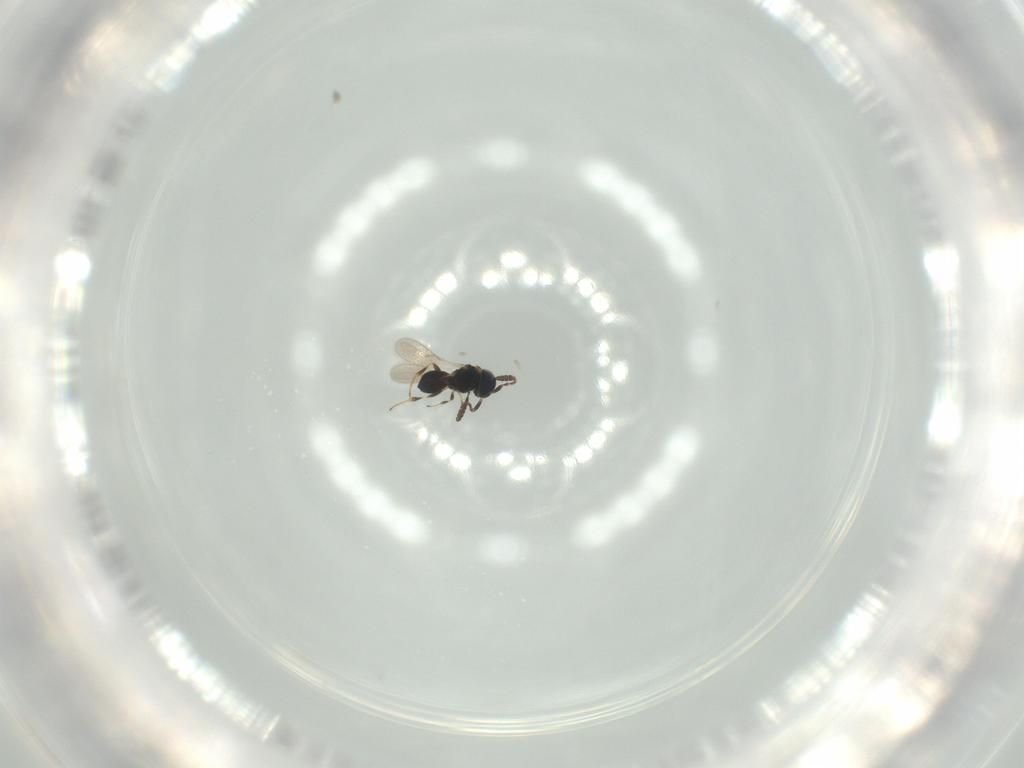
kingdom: Animalia
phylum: Arthropoda
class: Insecta
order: Hymenoptera
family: Scelionidae
